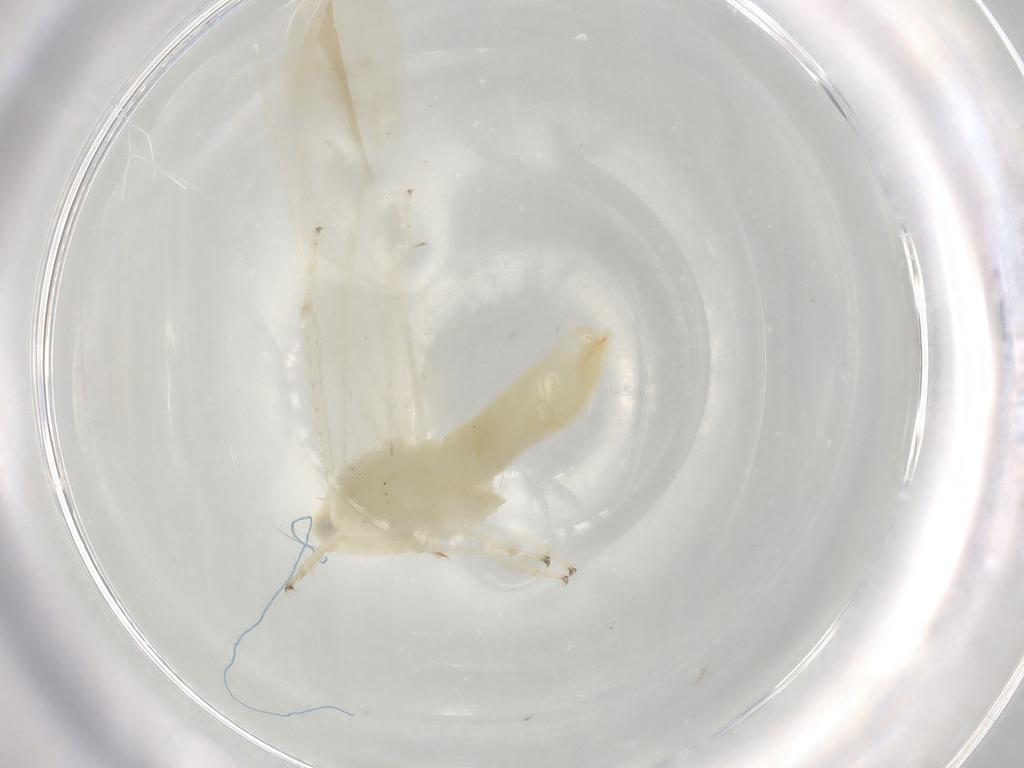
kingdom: Animalia
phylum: Arthropoda
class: Insecta
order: Hemiptera
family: Cicadellidae
